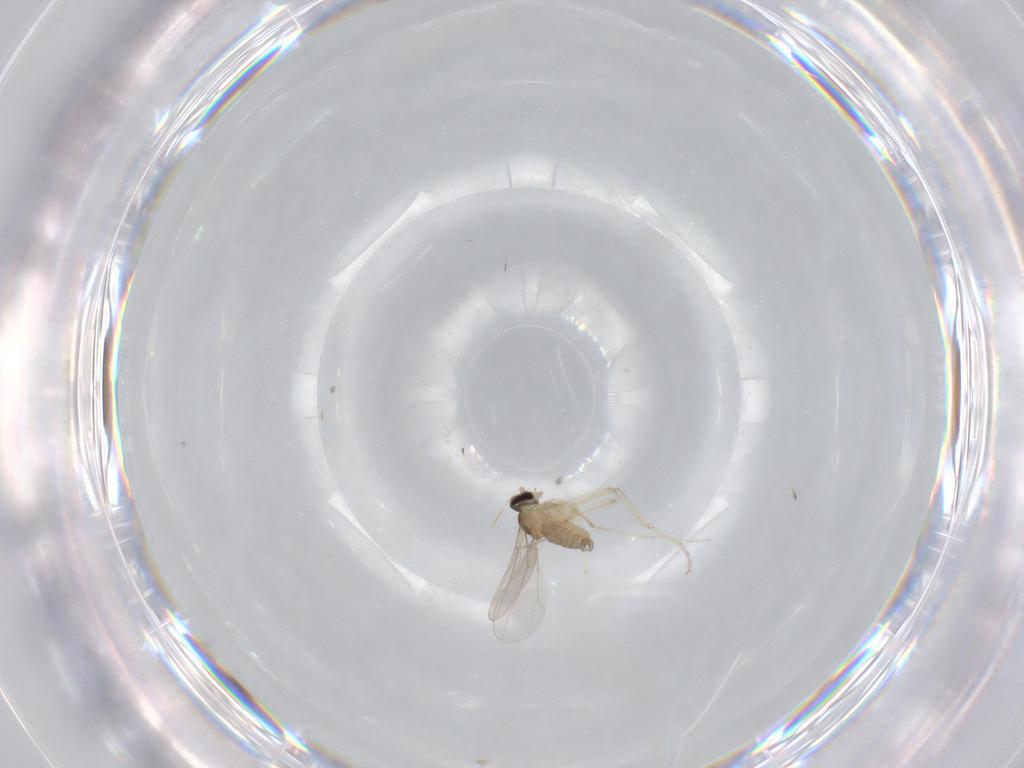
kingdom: Animalia
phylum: Arthropoda
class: Insecta
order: Diptera
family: Cecidomyiidae
